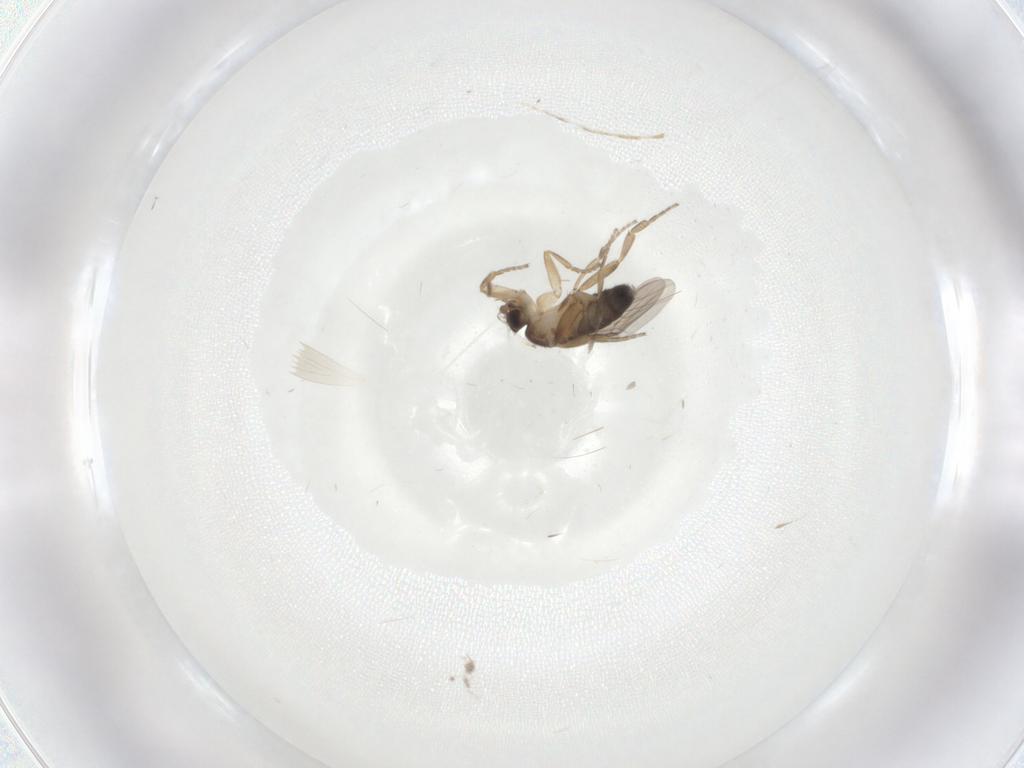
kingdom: Animalia
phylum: Arthropoda
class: Insecta
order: Diptera
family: Phoridae
